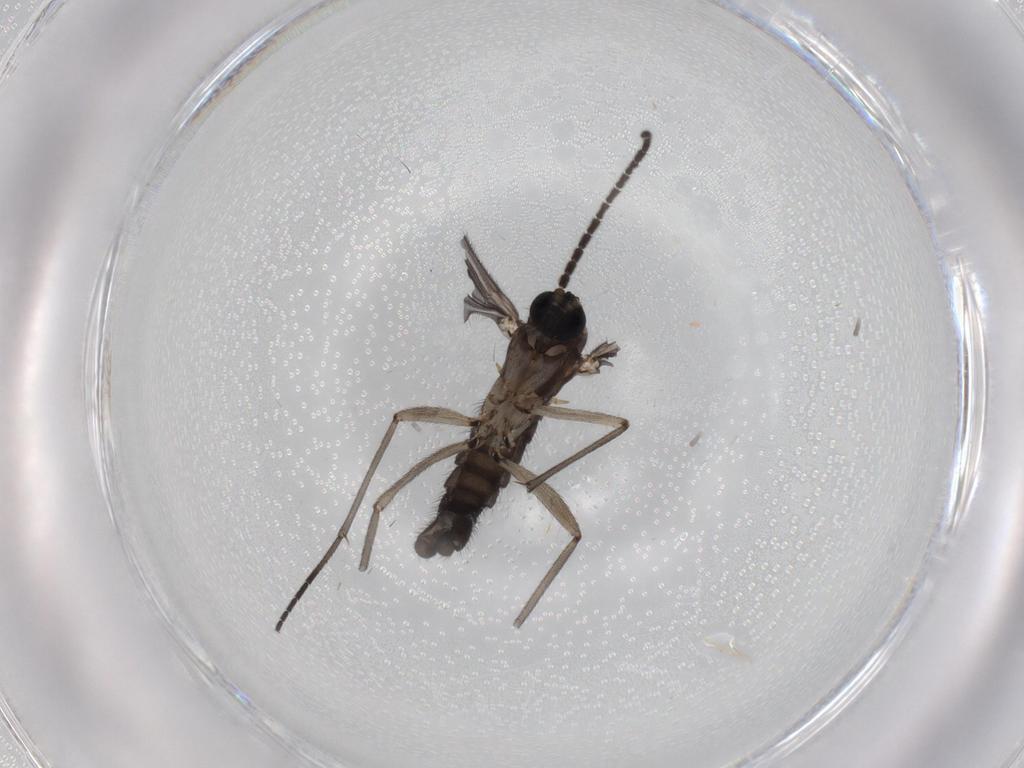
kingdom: Animalia
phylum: Arthropoda
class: Insecta
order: Diptera
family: Sciaridae
